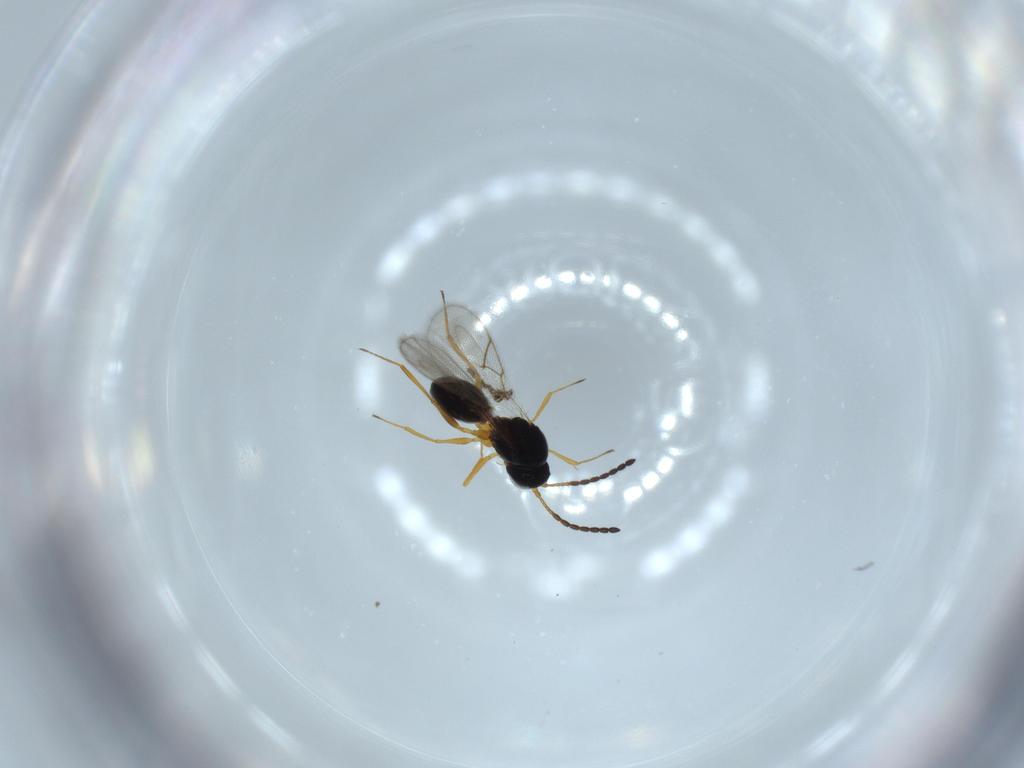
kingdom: Animalia
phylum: Arthropoda
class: Insecta
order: Hymenoptera
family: Figitidae
